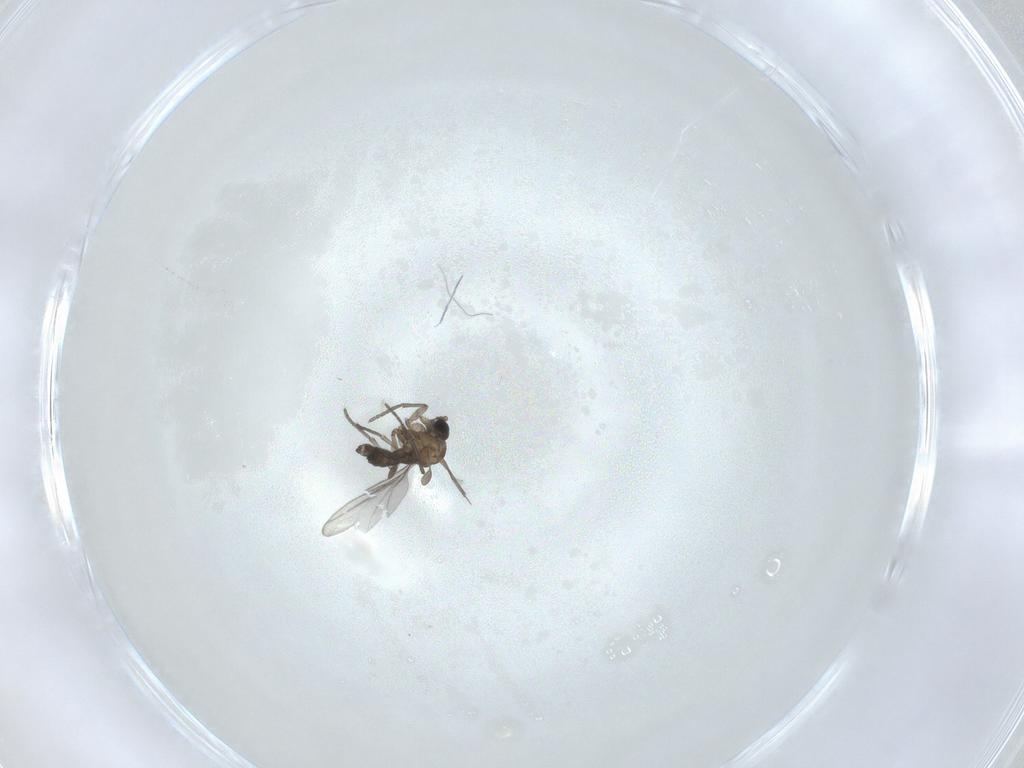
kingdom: Animalia
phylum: Arthropoda
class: Insecta
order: Diptera
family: Sciaridae
